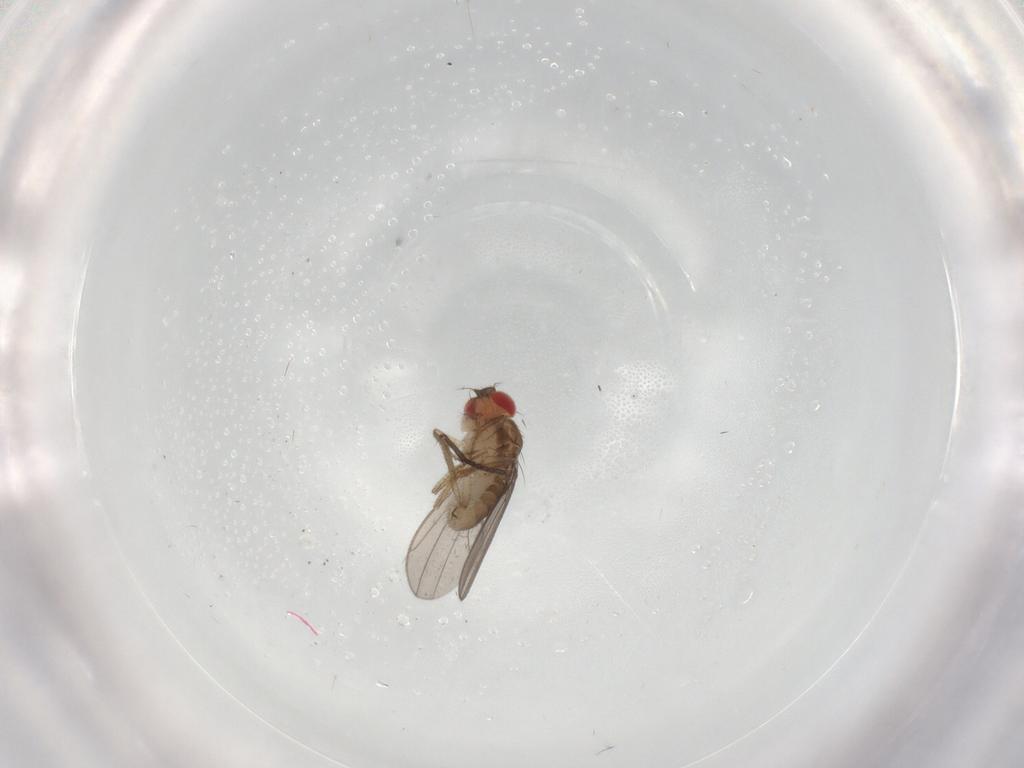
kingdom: Animalia
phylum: Arthropoda
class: Insecta
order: Diptera
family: Drosophilidae
